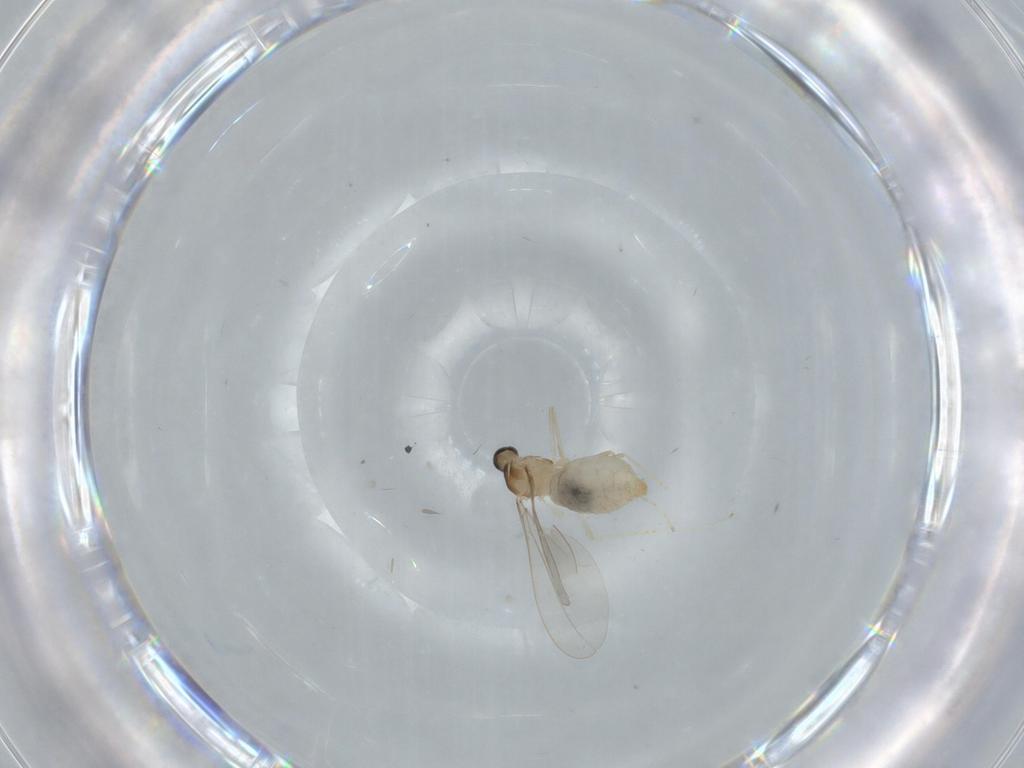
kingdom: Animalia
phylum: Arthropoda
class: Insecta
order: Diptera
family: Cecidomyiidae
